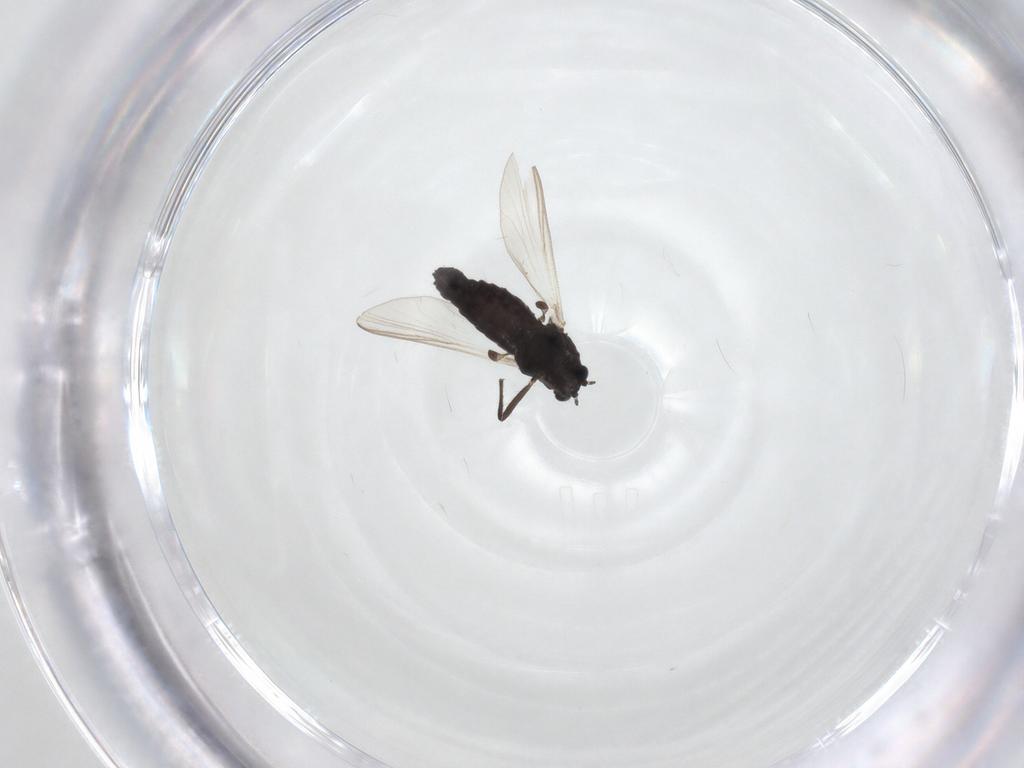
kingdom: Animalia
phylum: Arthropoda
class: Insecta
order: Diptera
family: Chironomidae
